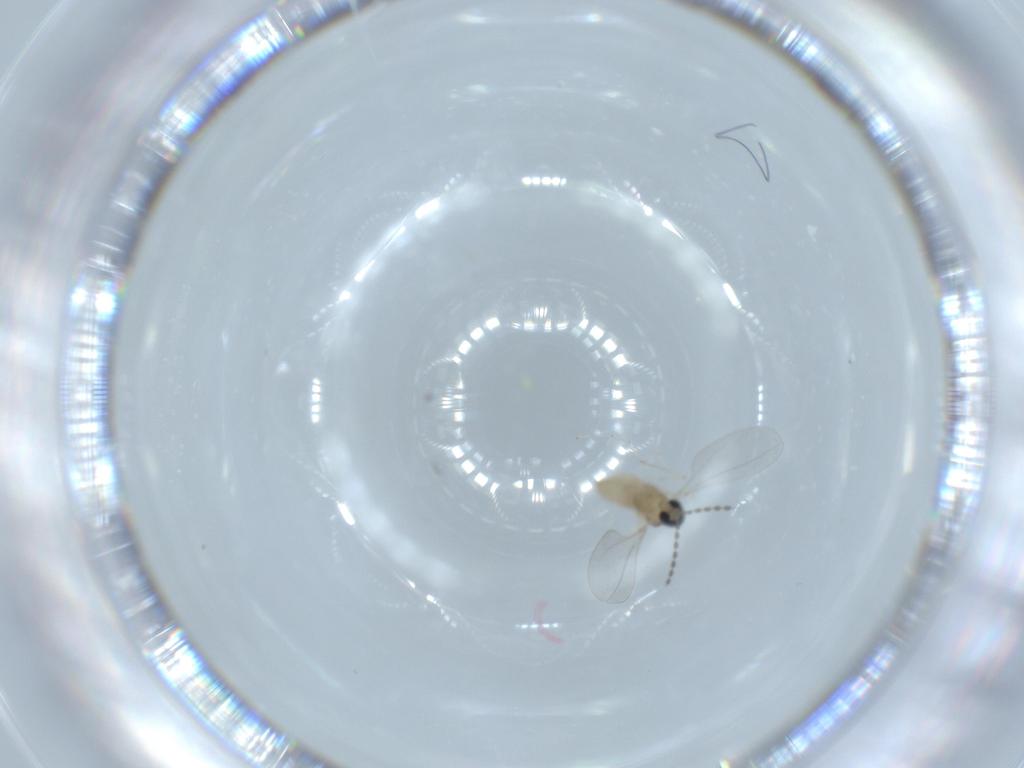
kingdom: Animalia
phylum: Arthropoda
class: Insecta
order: Diptera
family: Cecidomyiidae
